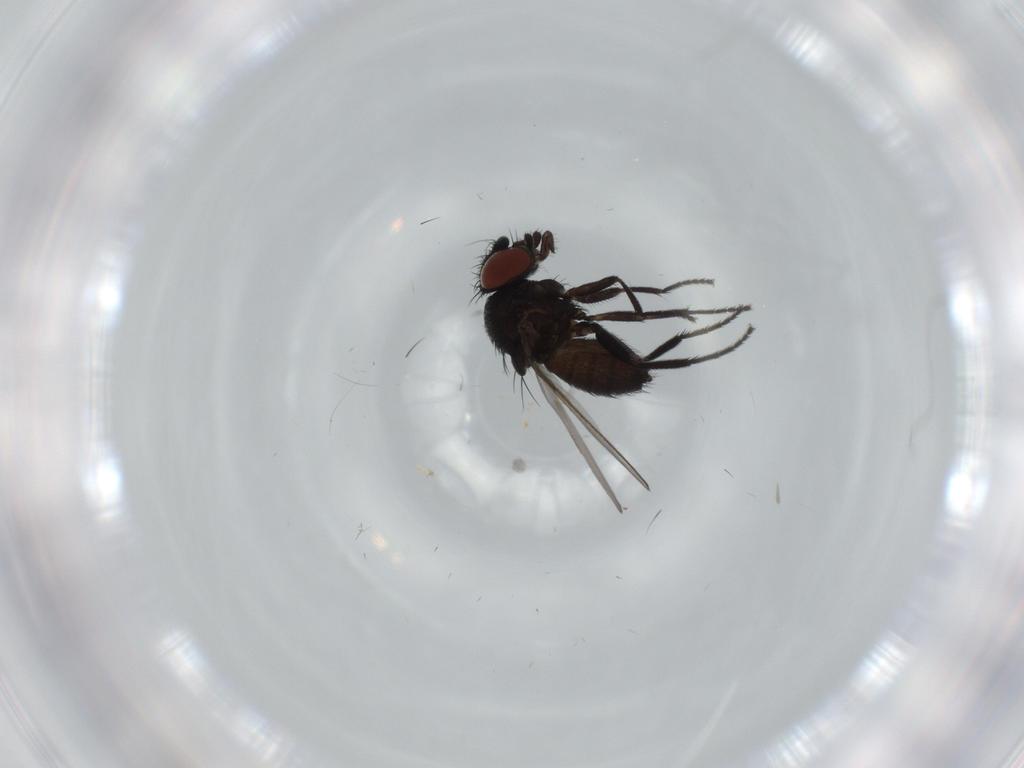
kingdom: Animalia
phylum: Arthropoda
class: Insecta
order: Diptera
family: Milichiidae
